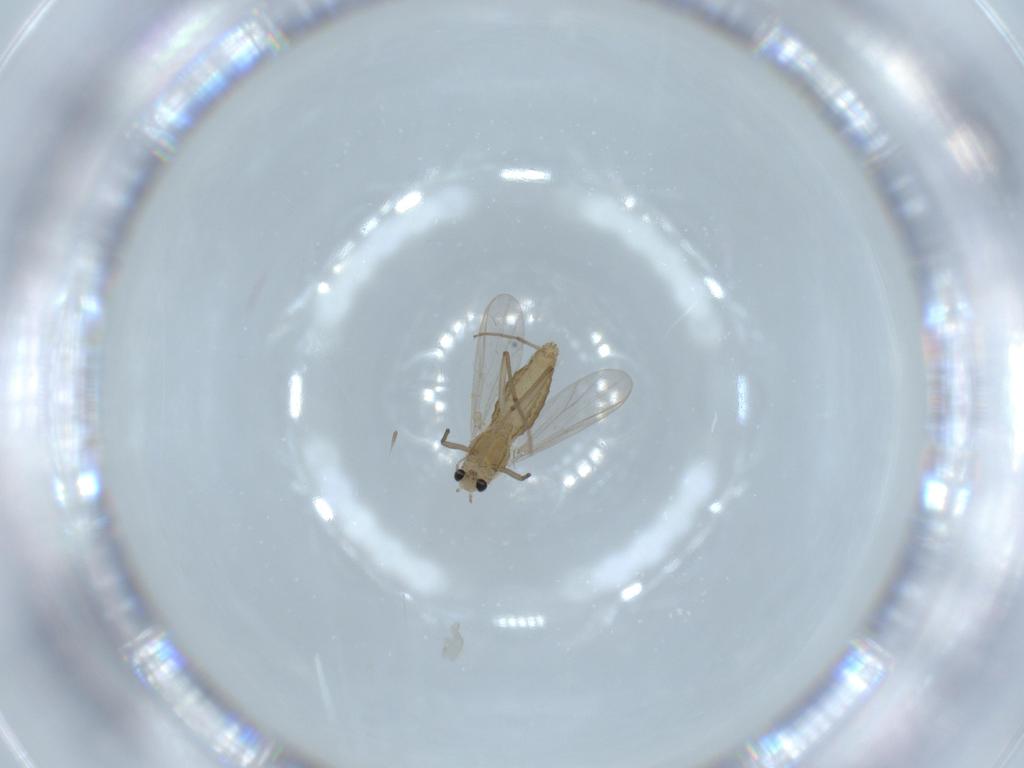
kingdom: Animalia
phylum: Arthropoda
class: Insecta
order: Diptera
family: Chironomidae
